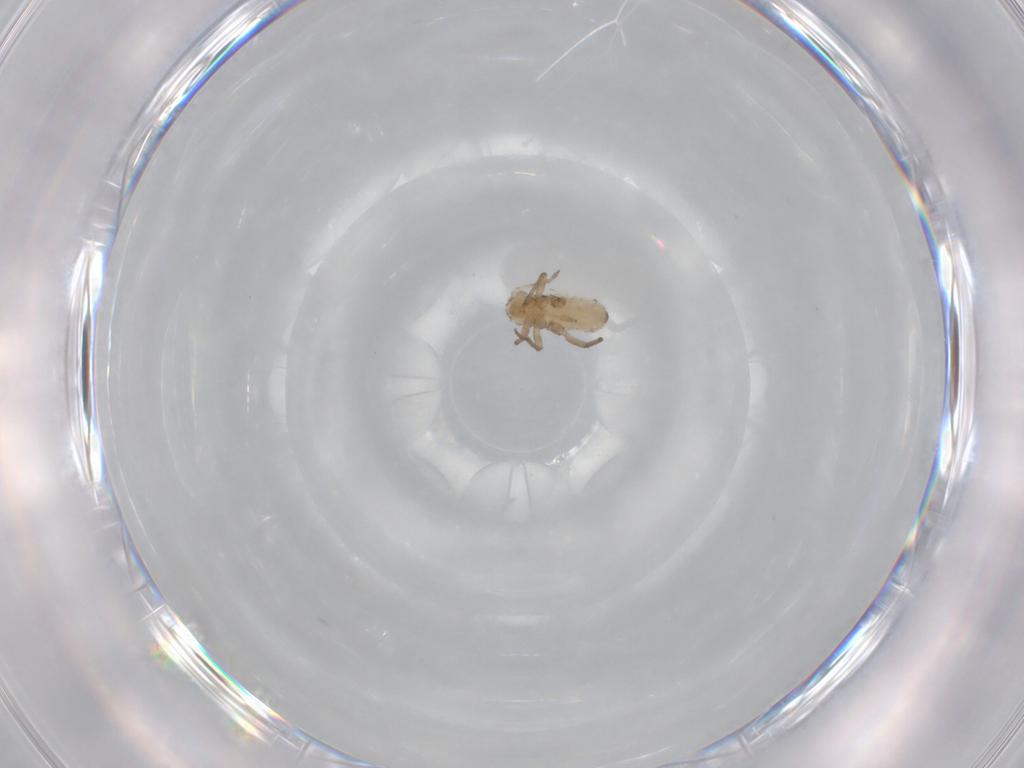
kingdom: Animalia
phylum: Arthropoda
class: Insecta
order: Hemiptera
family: Aphididae
